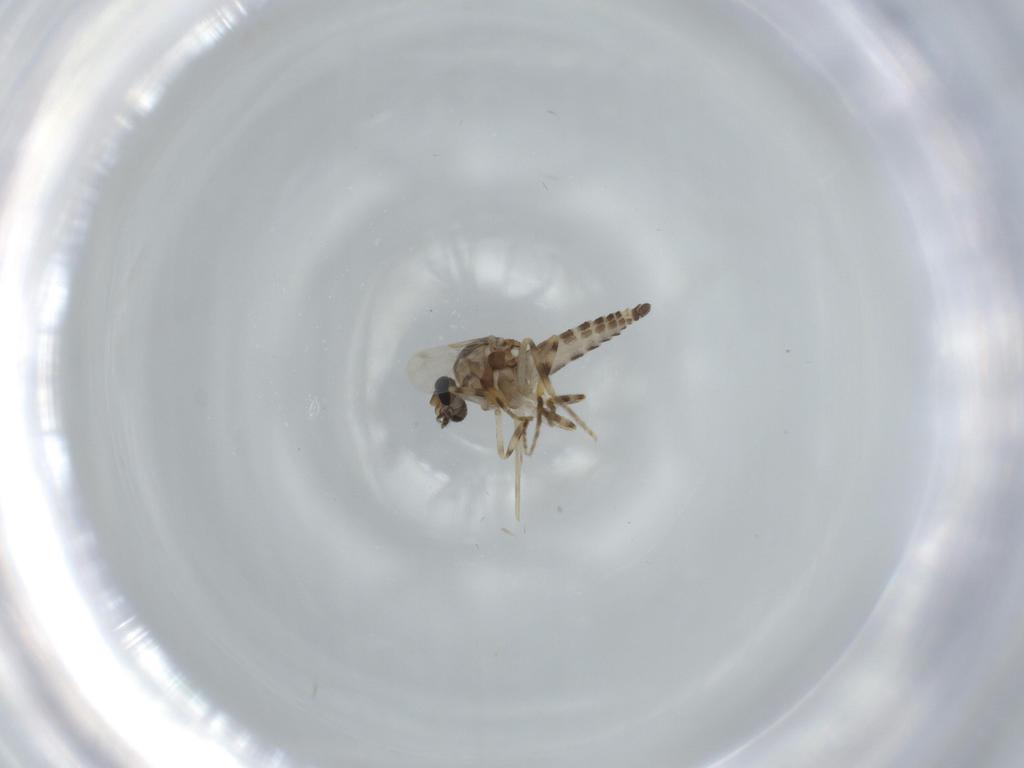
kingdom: Animalia
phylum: Arthropoda
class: Insecta
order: Diptera
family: Ceratopogonidae
